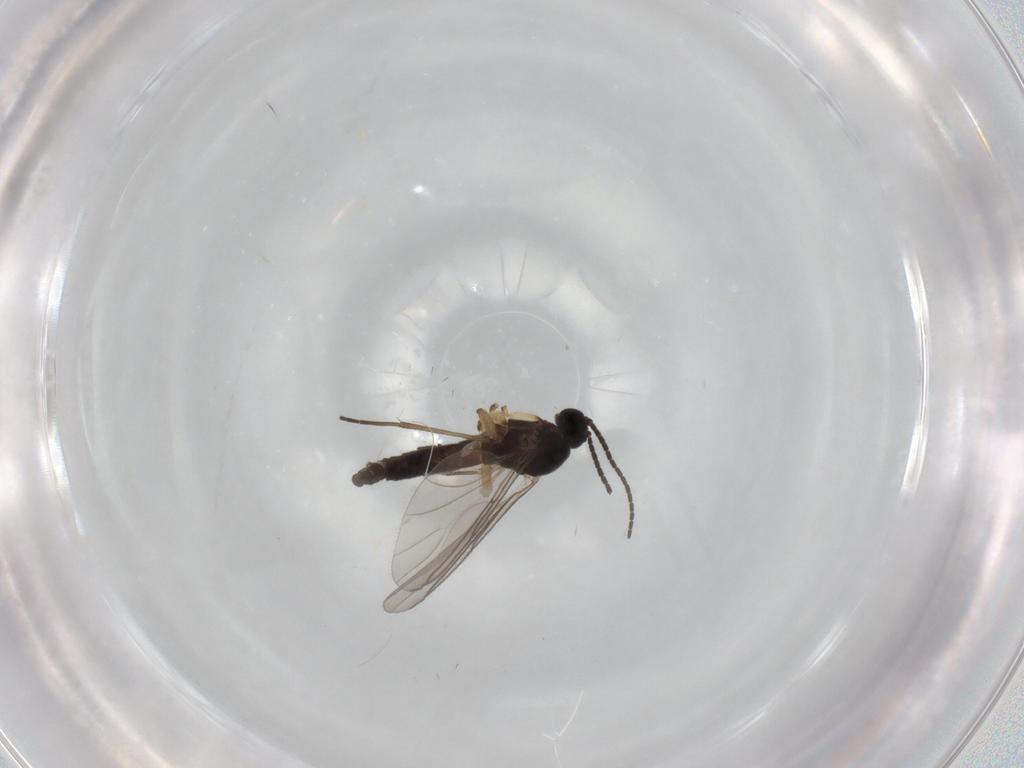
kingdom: Animalia
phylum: Arthropoda
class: Insecta
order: Diptera
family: Sciaridae
